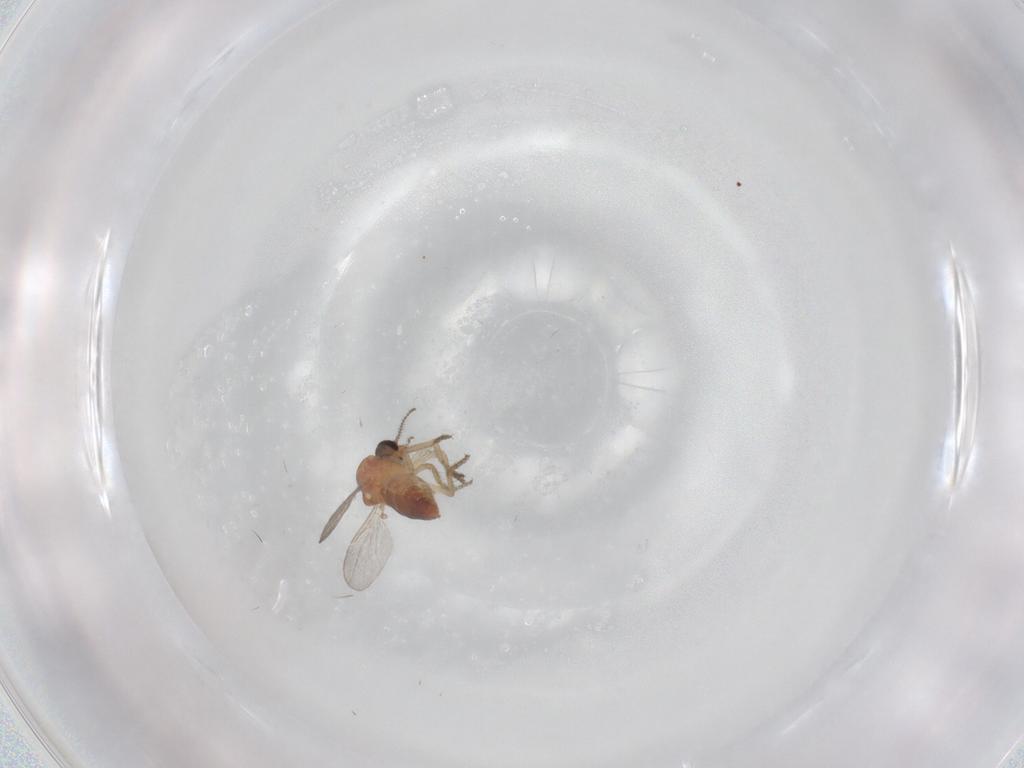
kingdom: Animalia
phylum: Arthropoda
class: Insecta
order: Diptera
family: Ceratopogonidae
